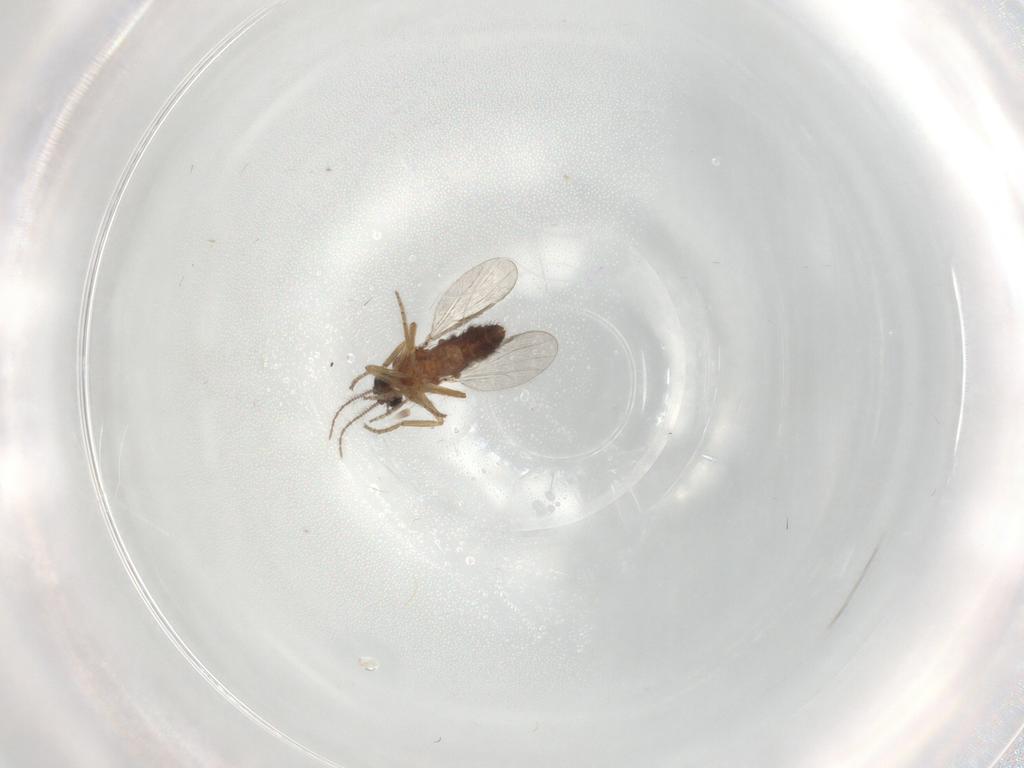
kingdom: Animalia
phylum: Arthropoda
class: Insecta
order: Diptera
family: Ceratopogonidae
